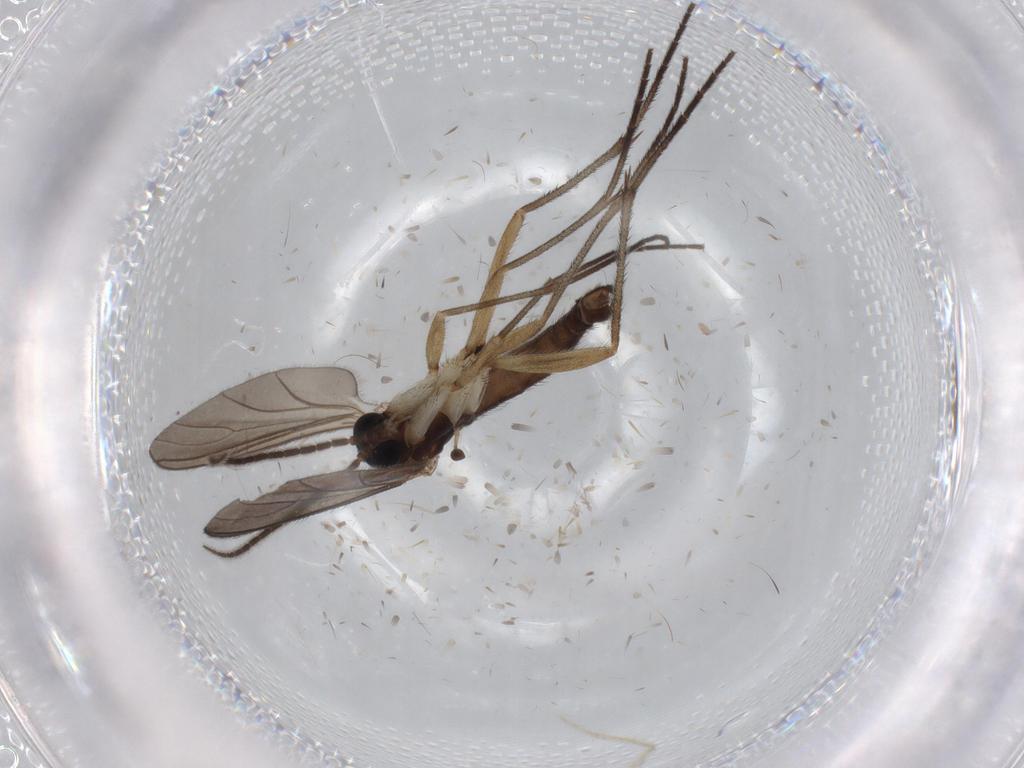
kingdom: Animalia
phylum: Arthropoda
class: Insecta
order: Diptera
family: Sciaridae
